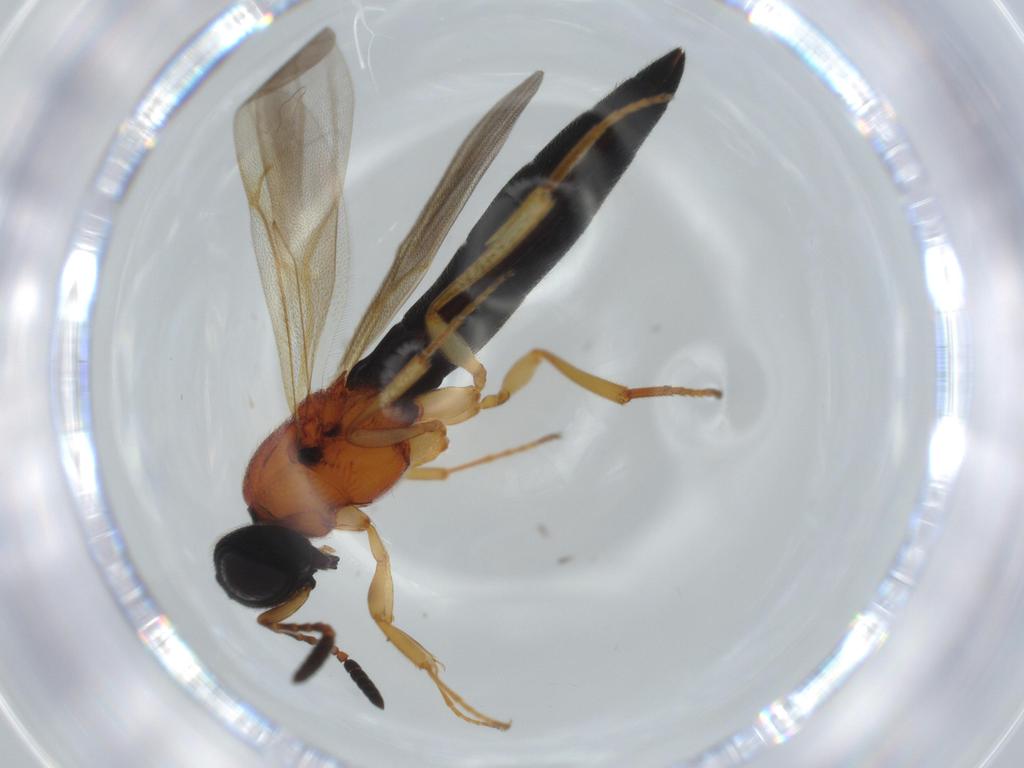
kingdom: Animalia
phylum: Arthropoda
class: Insecta
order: Hymenoptera
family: Scelionidae
